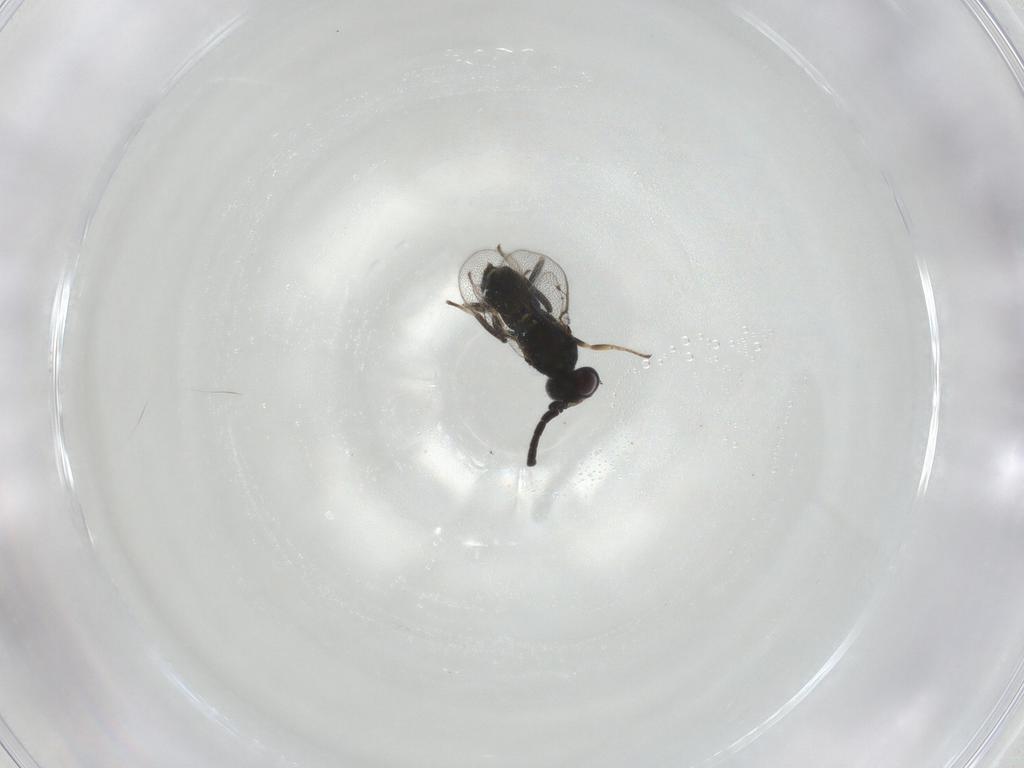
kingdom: Animalia
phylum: Arthropoda
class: Insecta
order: Hymenoptera
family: Eupelmidae
